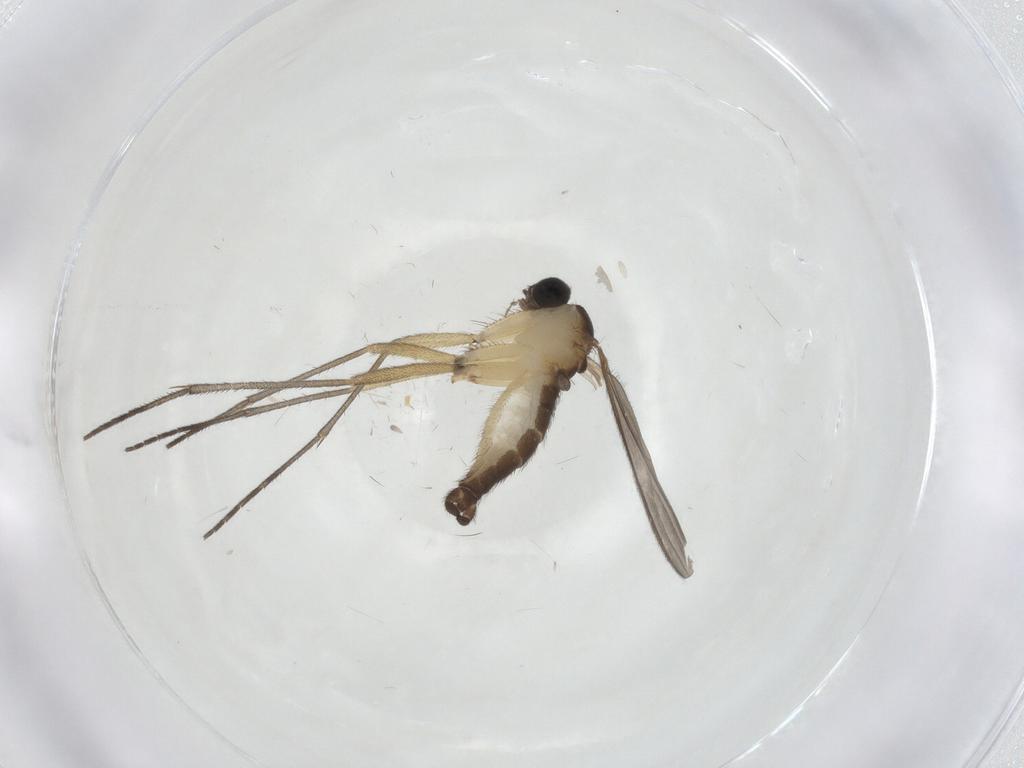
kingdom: Animalia
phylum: Arthropoda
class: Insecta
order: Diptera
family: Sciaridae
